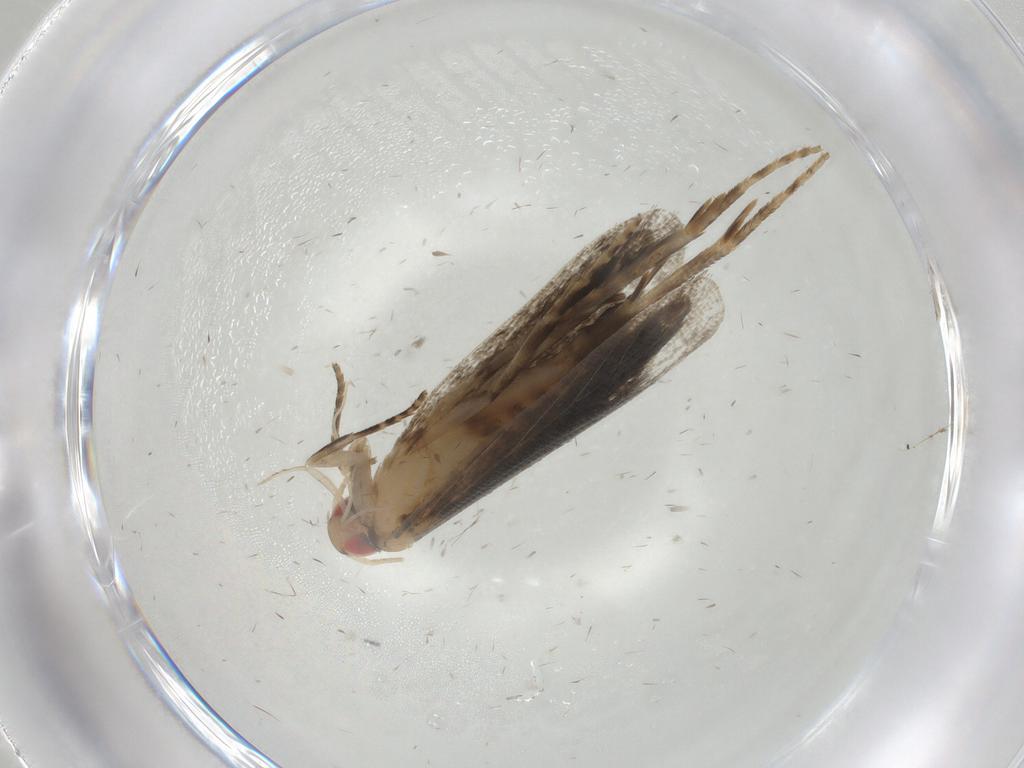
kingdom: Animalia
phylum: Arthropoda
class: Insecta
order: Lepidoptera
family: Gelechiidae
